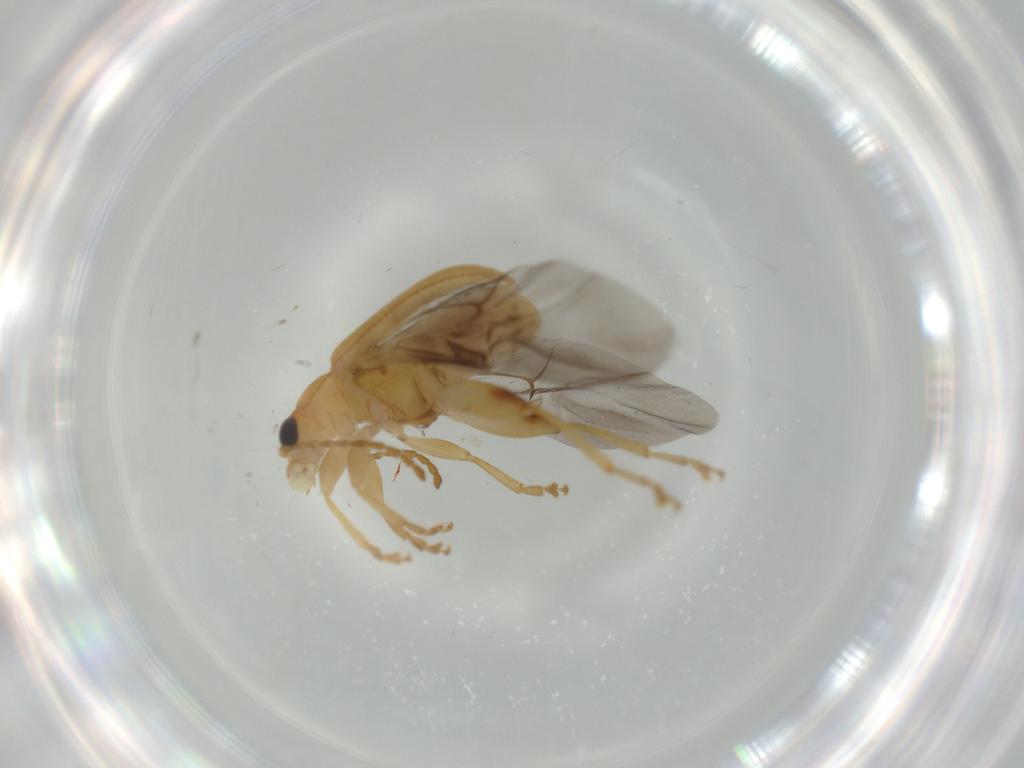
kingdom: Animalia
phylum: Arthropoda
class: Insecta
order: Coleoptera
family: Chrysomelidae
